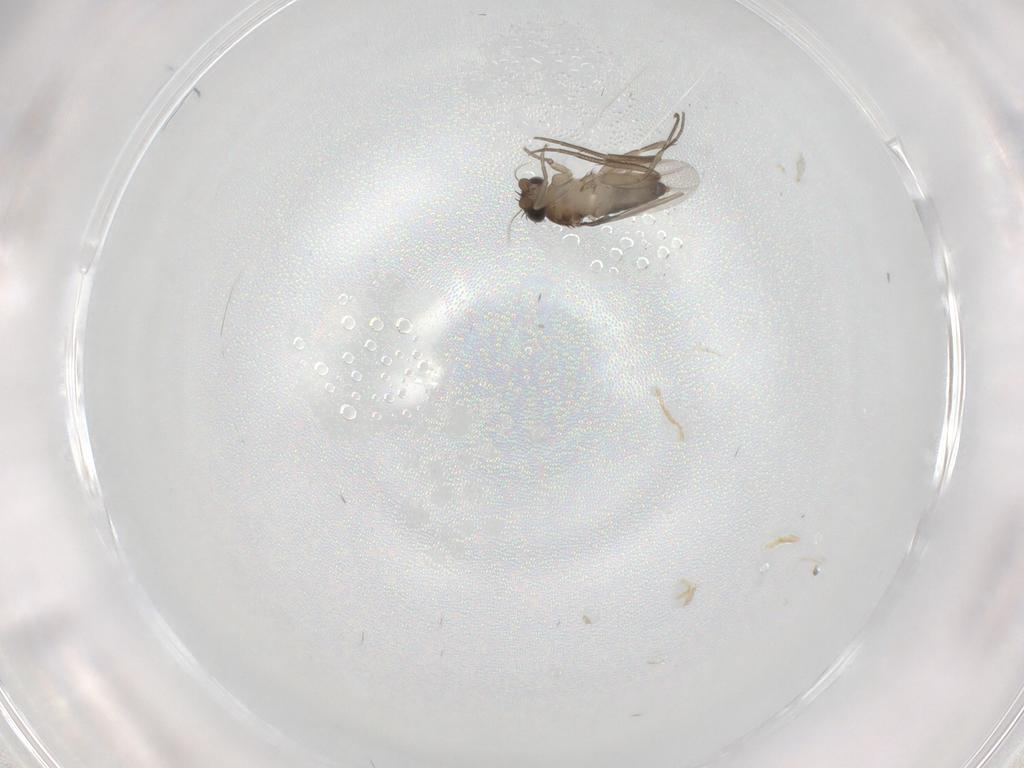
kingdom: Animalia
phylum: Arthropoda
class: Insecta
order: Diptera
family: Phoridae
